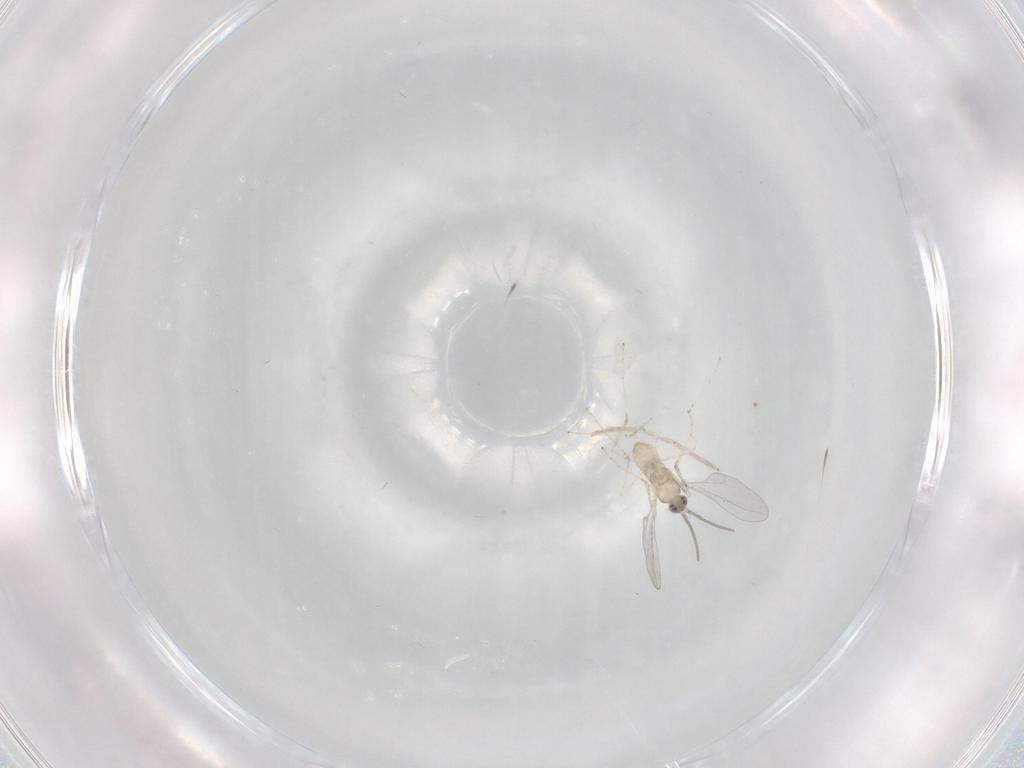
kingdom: Animalia
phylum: Arthropoda
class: Insecta
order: Diptera
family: Cecidomyiidae
